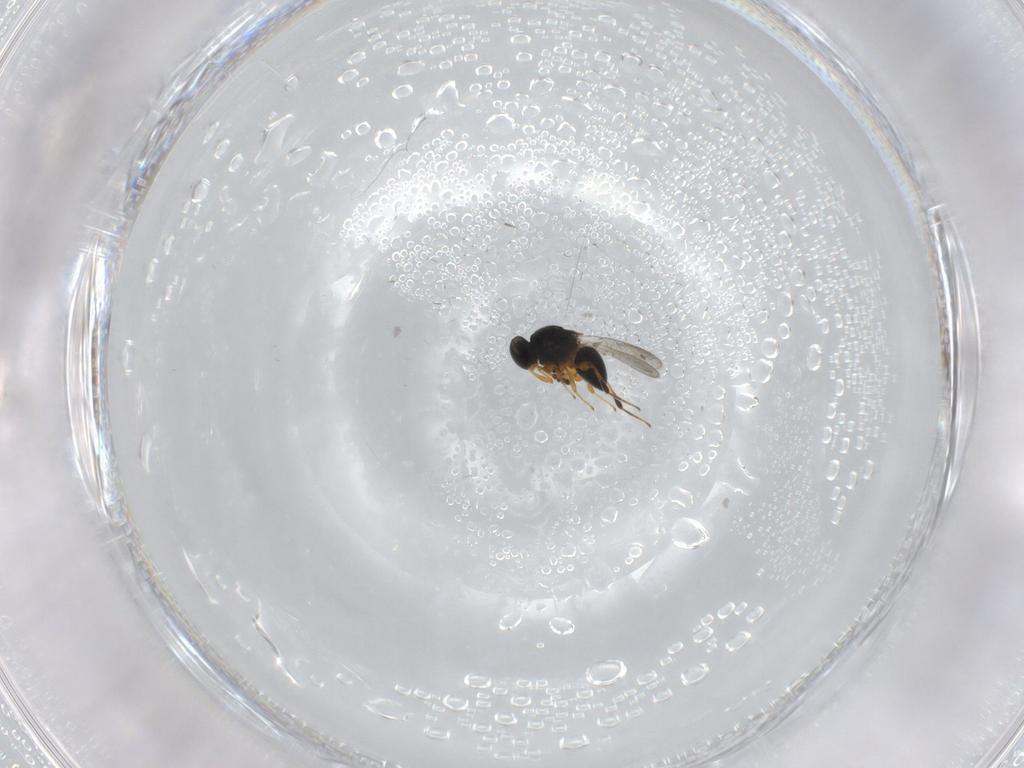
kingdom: Animalia
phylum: Arthropoda
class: Insecta
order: Hymenoptera
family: Platygastridae
